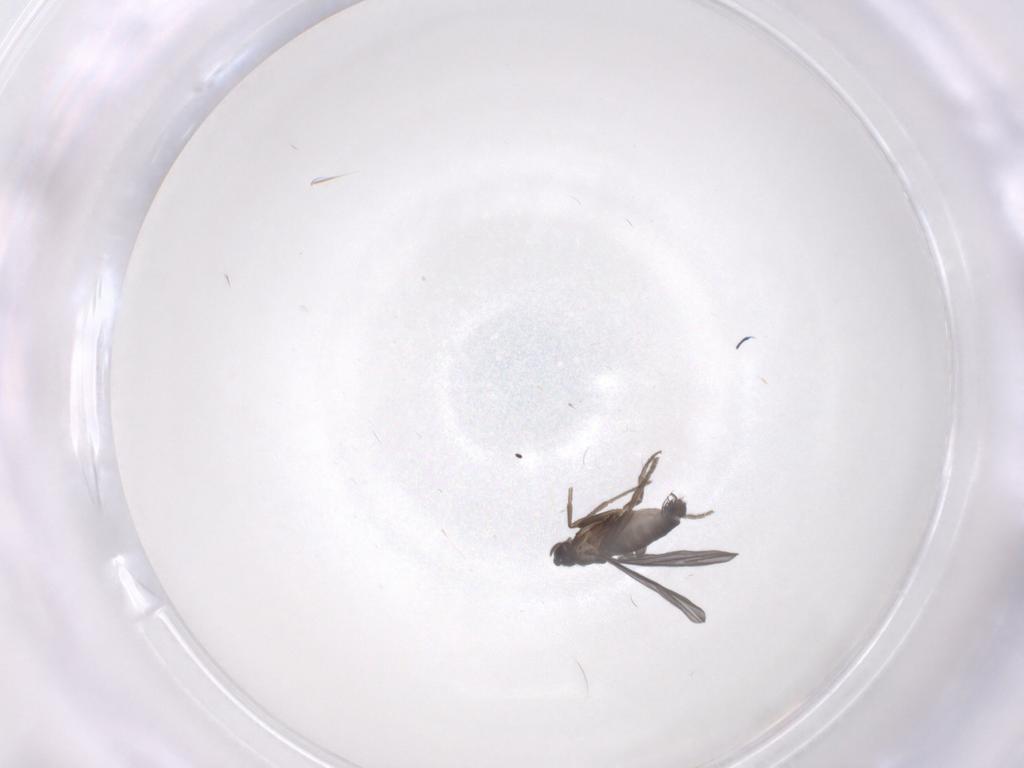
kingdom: Animalia
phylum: Arthropoda
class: Insecta
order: Diptera
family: Phoridae
